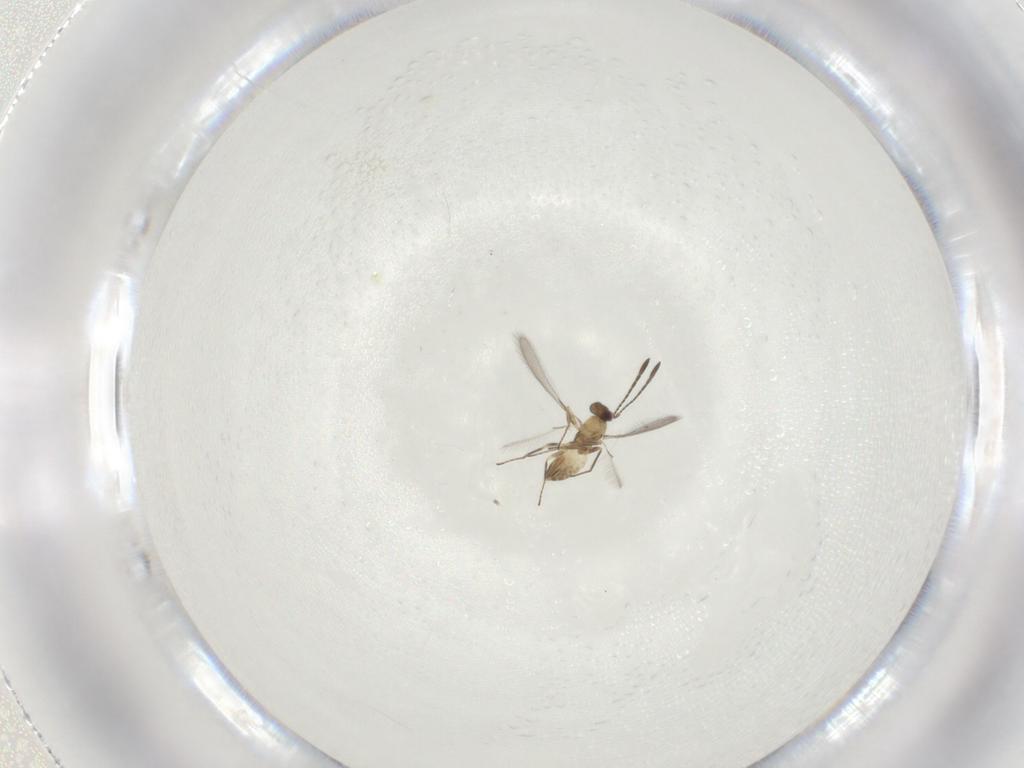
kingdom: Animalia
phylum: Arthropoda
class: Insecta
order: Hymenoptera
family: Mymaridae
